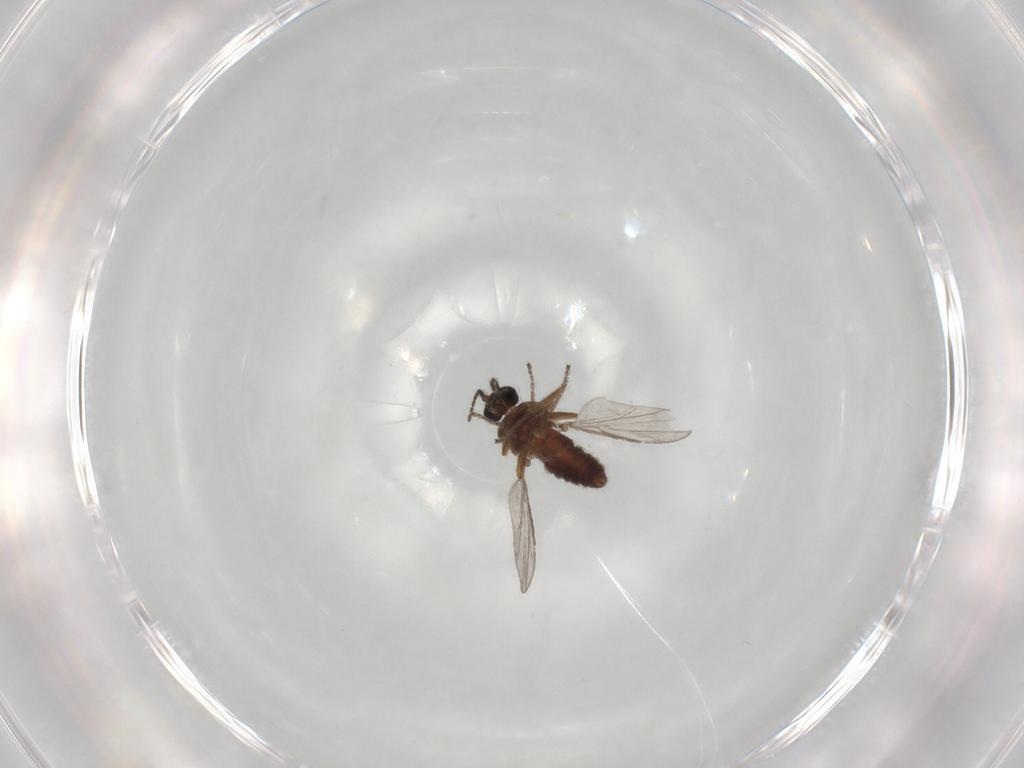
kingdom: Animalia
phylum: Arthropoda
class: Insecta
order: Diptera
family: Ceratopogonidae
